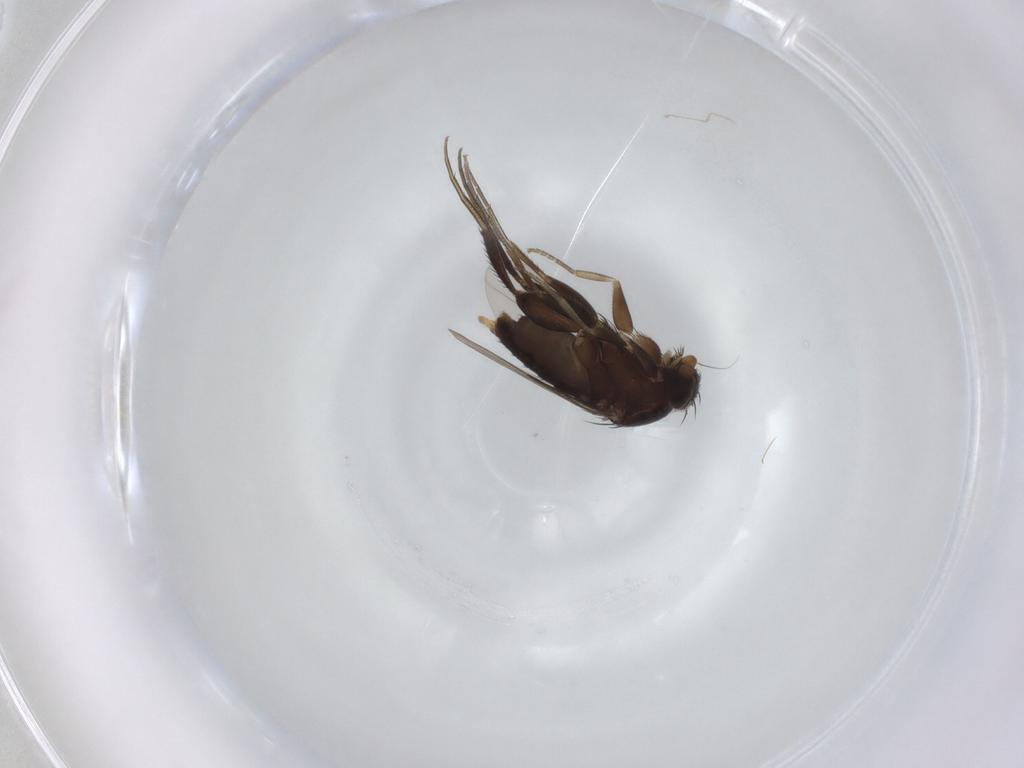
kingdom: Animalia
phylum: Arthropoda
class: Insecta
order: Diptera
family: Phoridae
